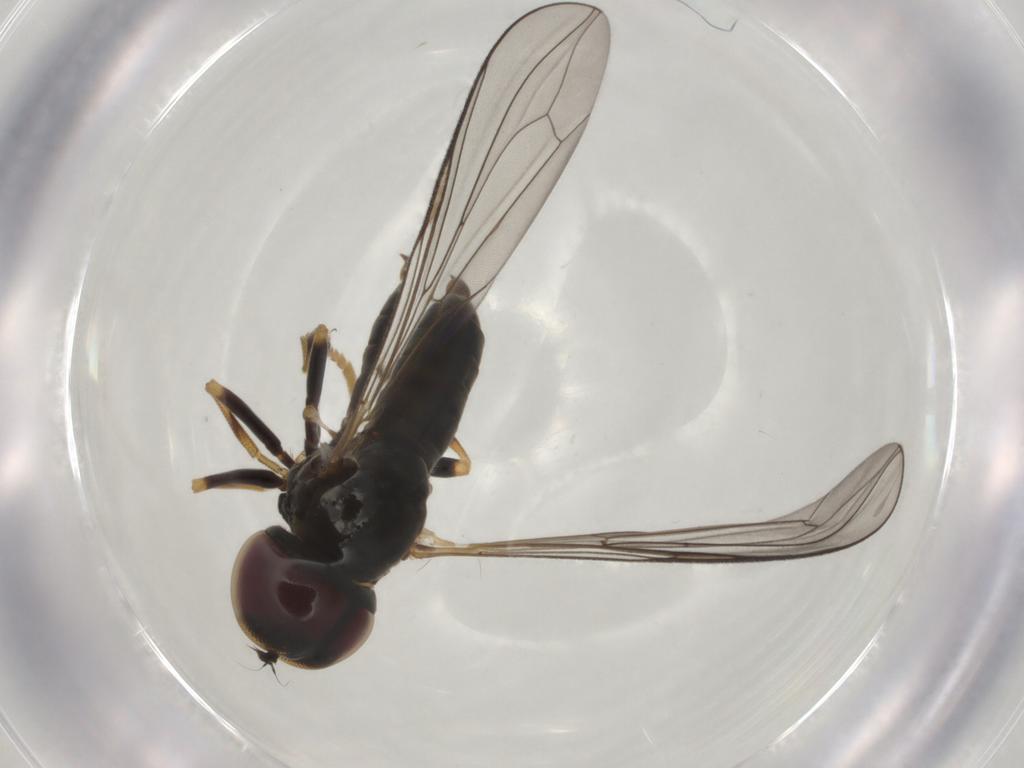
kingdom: Animalia
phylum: Arthropoda
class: Insecta
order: Diptera
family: Pipunculidae
